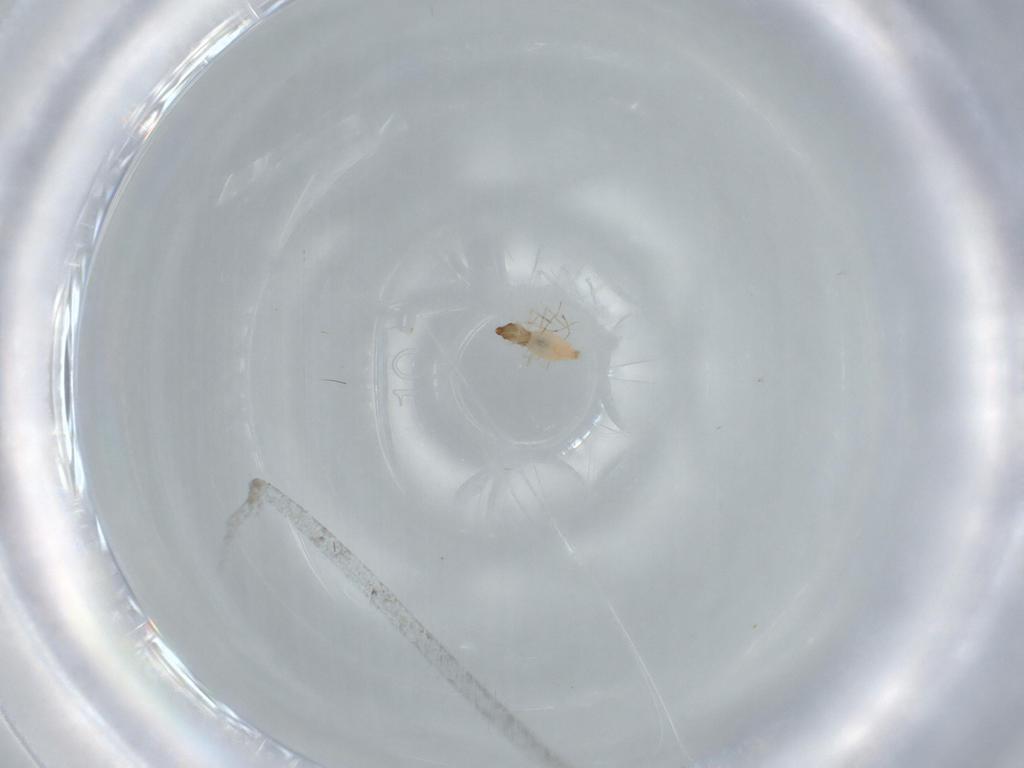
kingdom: Animalia
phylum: Arthropoda
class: Insecta
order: Diptera
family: Cecidomyiidae
